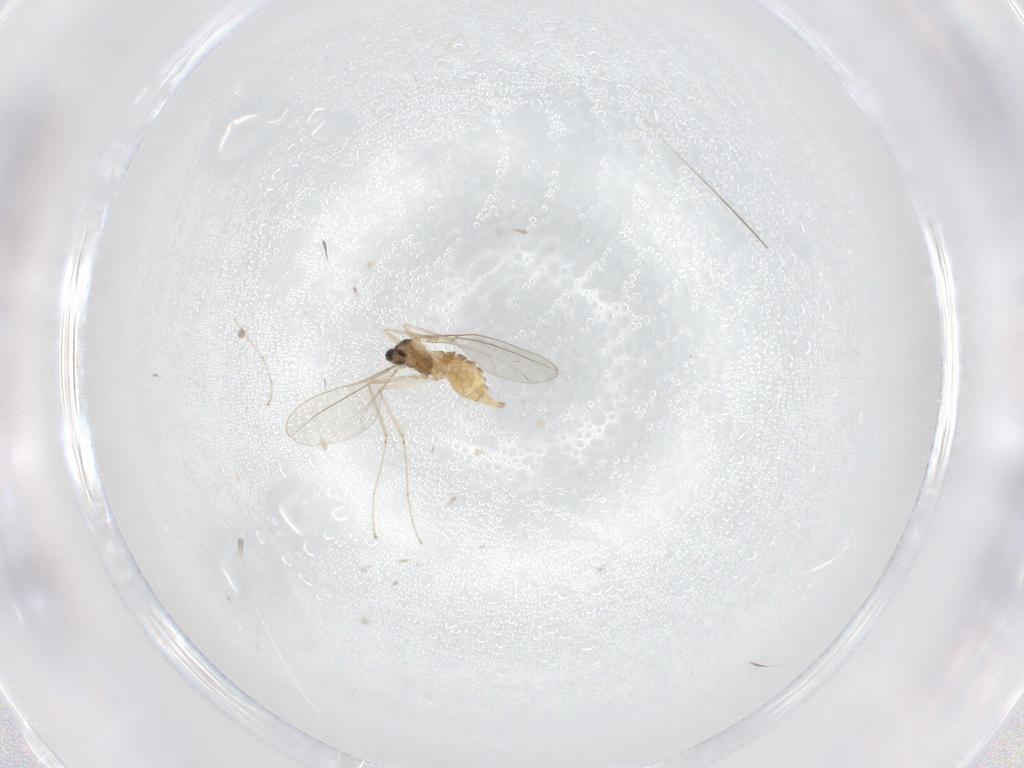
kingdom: Animalia
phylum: Arthropoda
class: Insecta
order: Diptera
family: Cecidomyiidae
